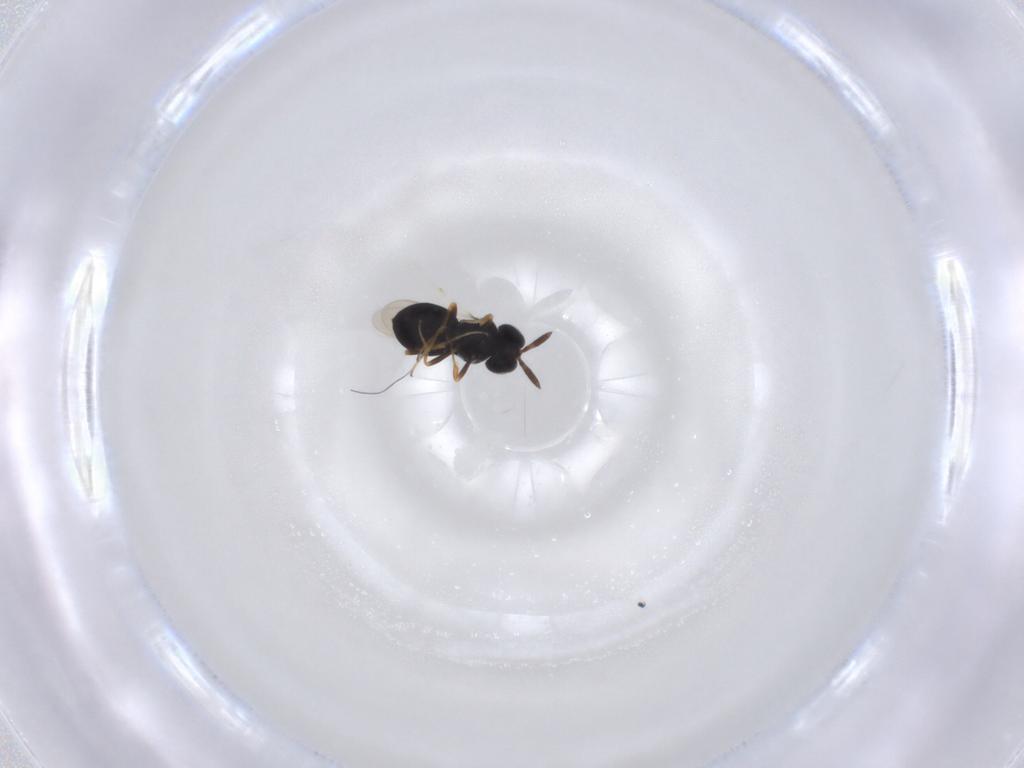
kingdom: Animalia
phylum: Arthropoda
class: Insecta
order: Hymenoptera
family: Scelionidae
